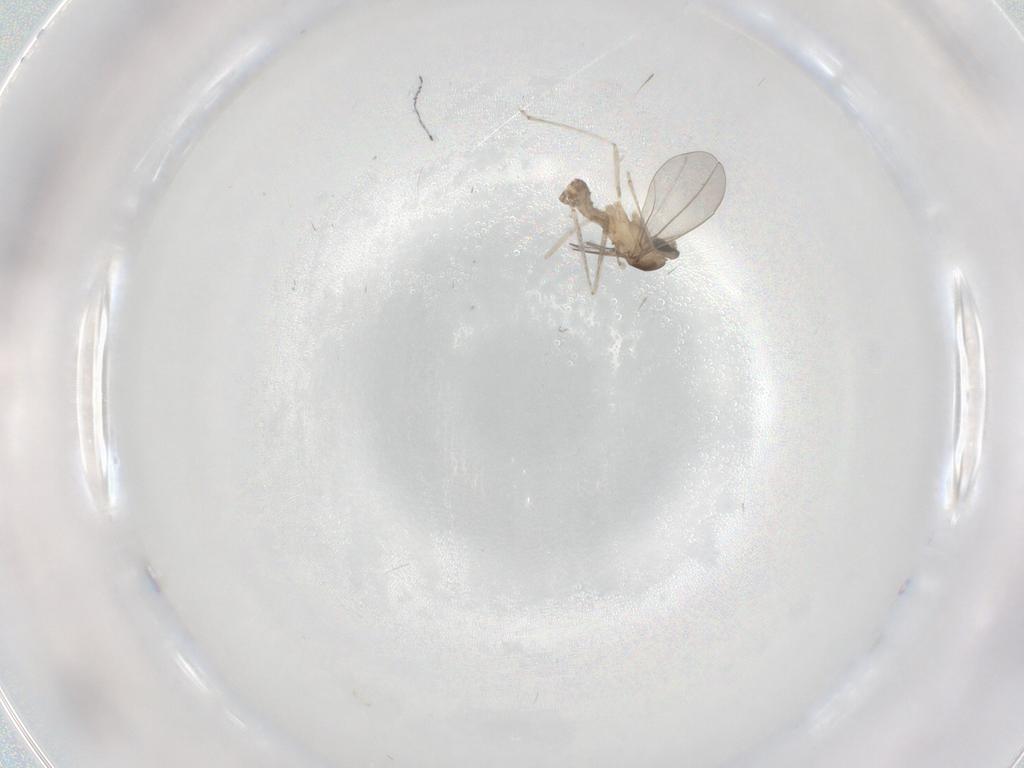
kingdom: Animalia
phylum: Arthropoda
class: Insecta
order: Diptera
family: Cecidomyiidae
